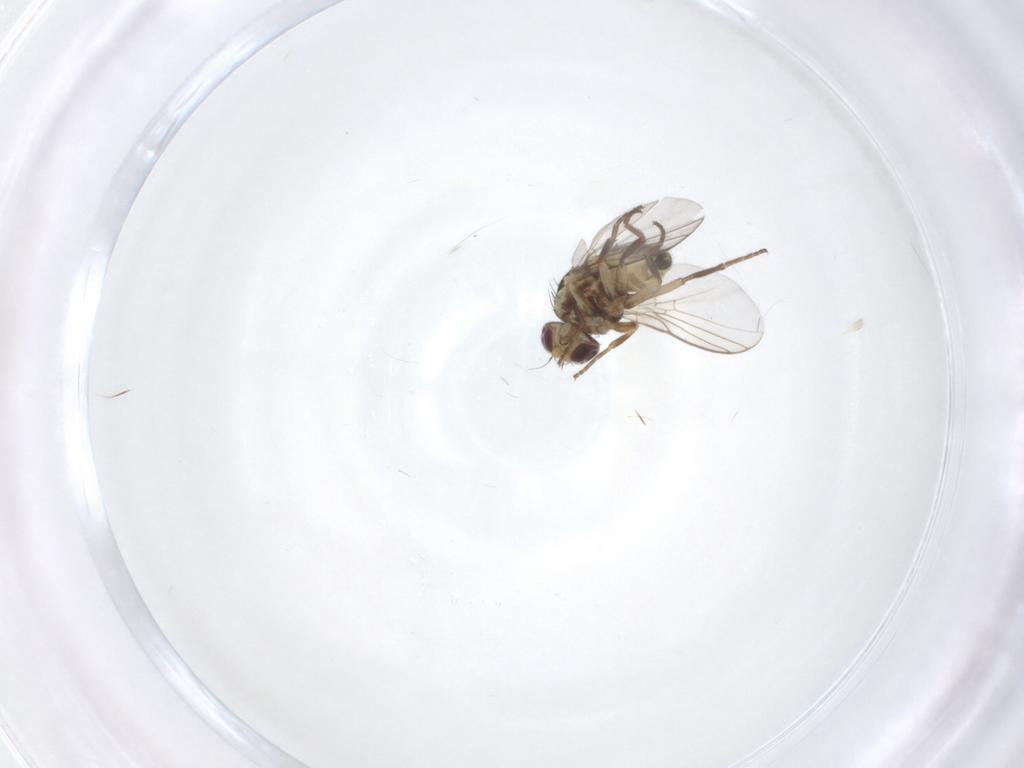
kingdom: Animalia
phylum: Arthropoda
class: Insecta
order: Diptera
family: Agromyzidae
